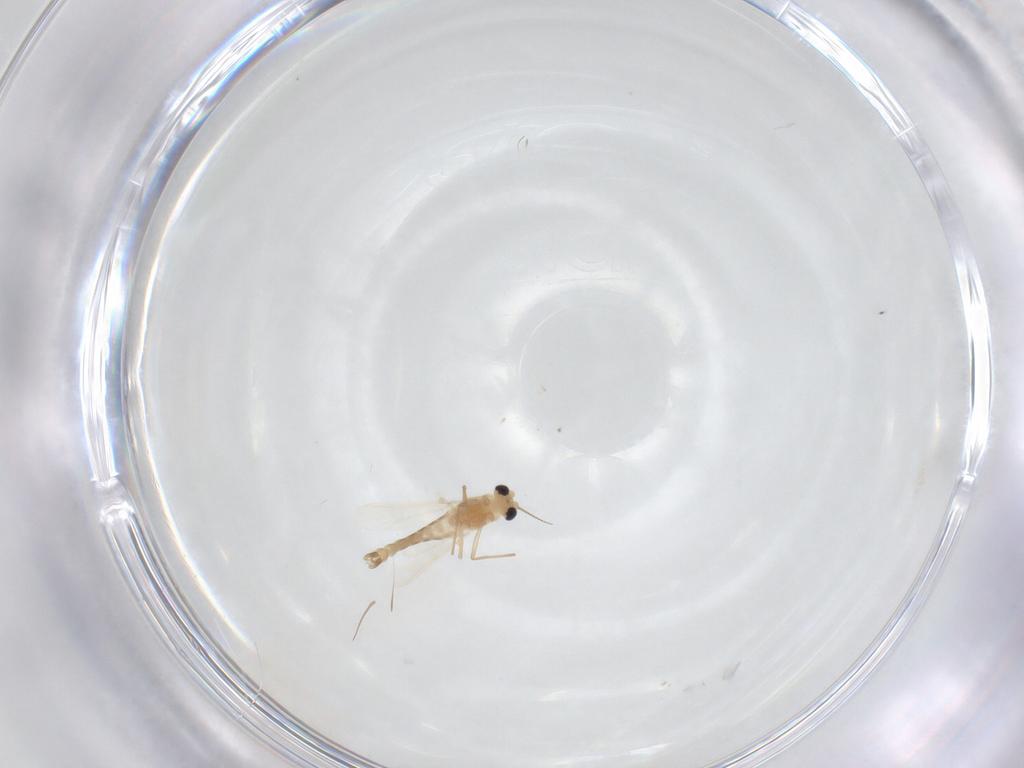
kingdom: Animalia
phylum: Arthropoda
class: Insecta
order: Diptera
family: Chironomidae
